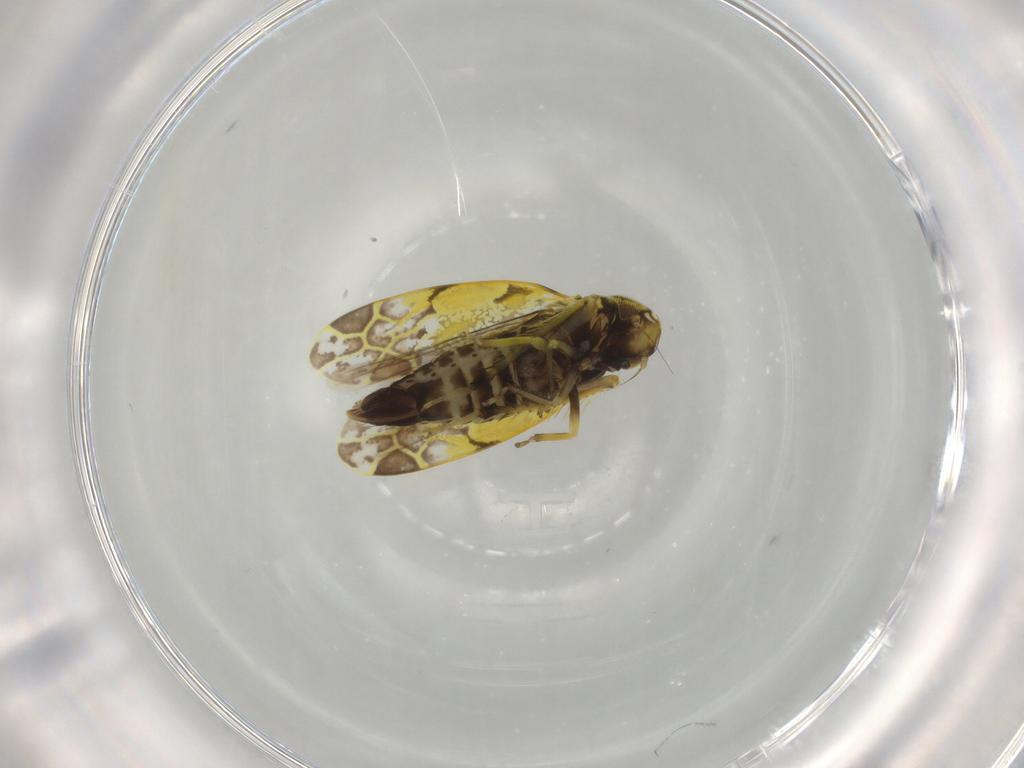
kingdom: Animalia
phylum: Arthropoda
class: Insecta
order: Hemiptera
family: Cicadellidae
